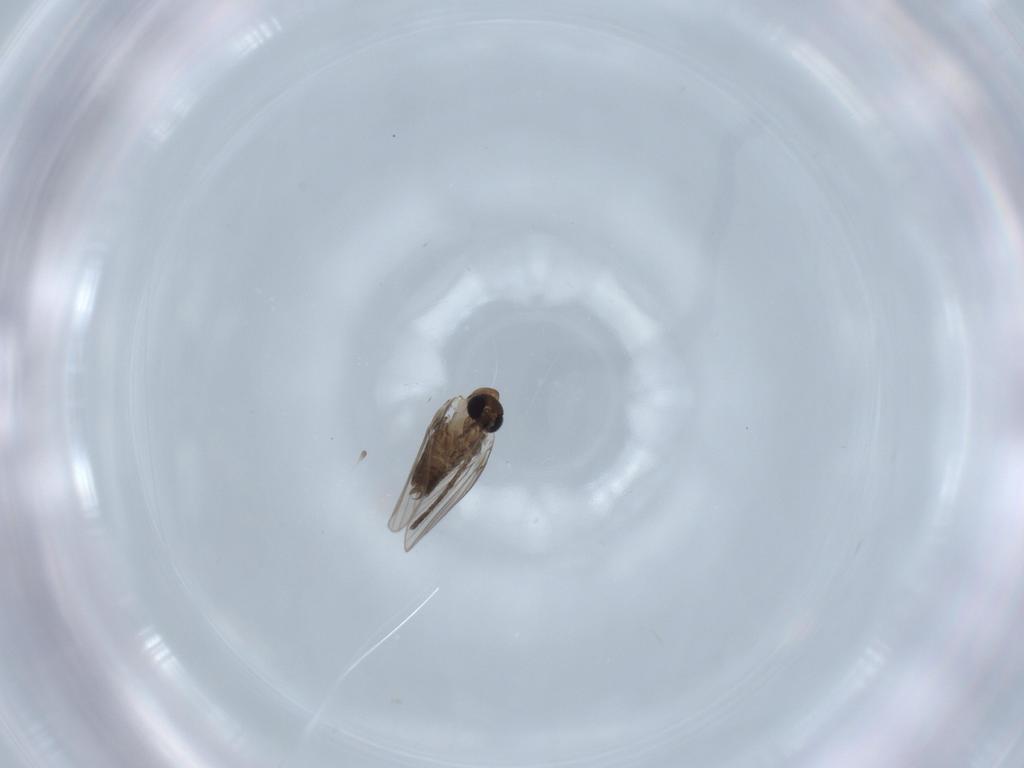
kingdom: Animalia
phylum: Arthropoda
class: Insecta
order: Diptera
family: Psychodidae
